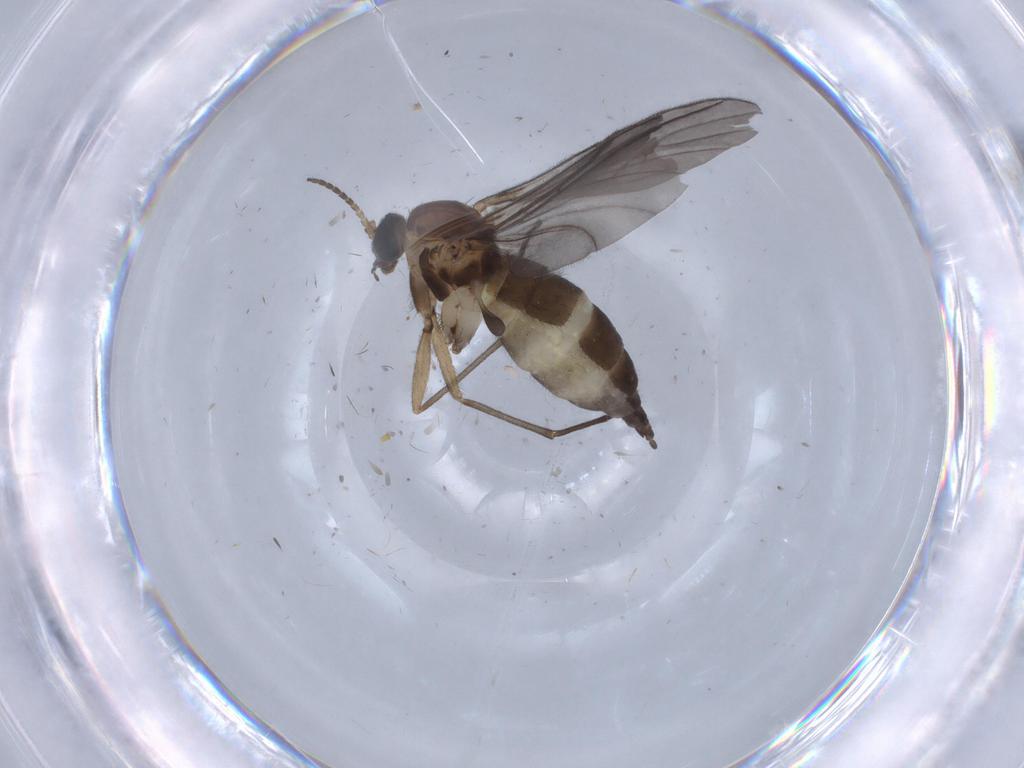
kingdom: Animalia
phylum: Arthropoda
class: Insecta
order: Diptera
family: Sciaridae
